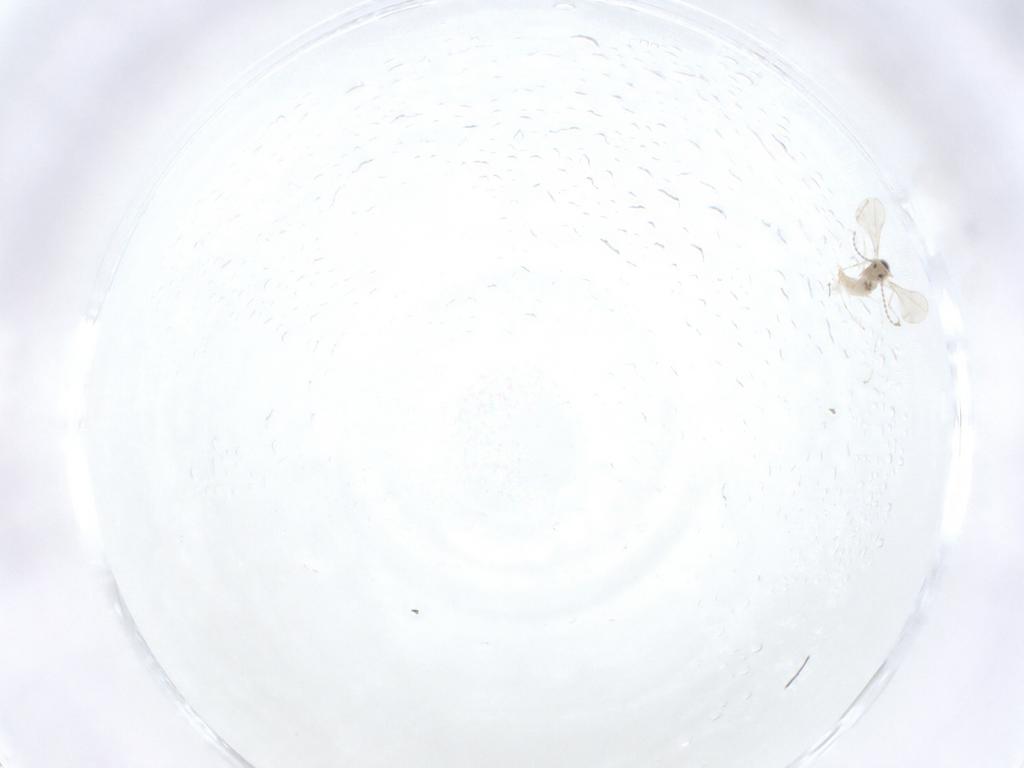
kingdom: Animalia
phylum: Arthropoda
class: Insecta
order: Diptera
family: Cecidomyiidae
